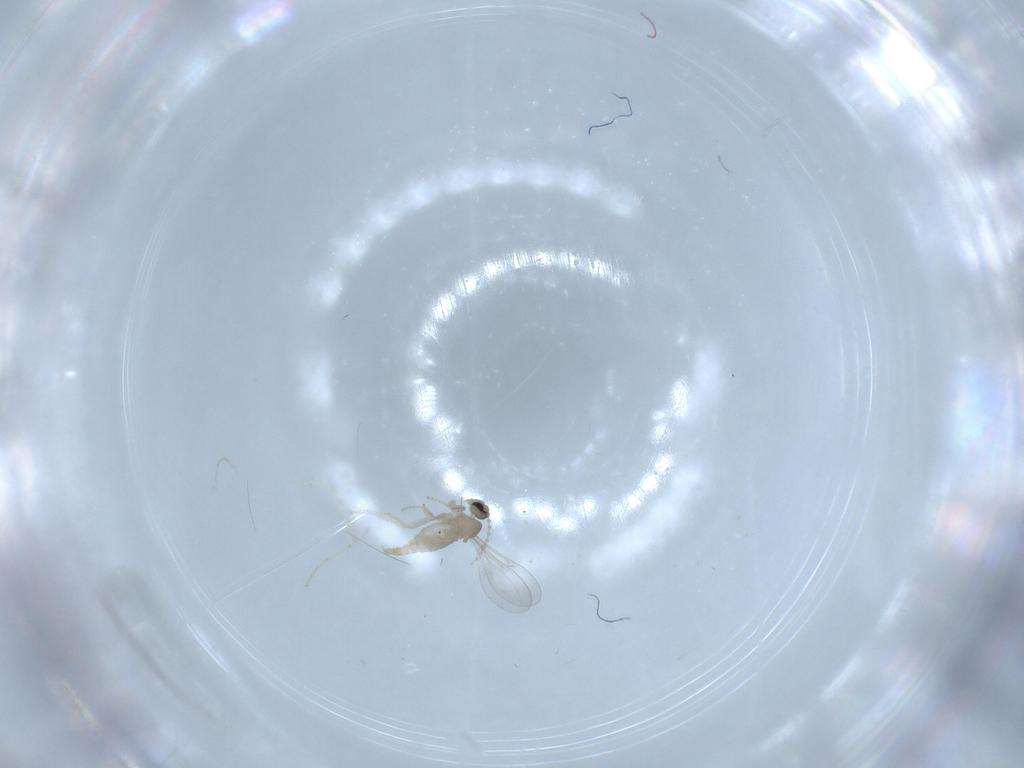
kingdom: Animalia
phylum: Arthropoda
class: Insecta
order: Diptera
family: Cecidomyiidae
